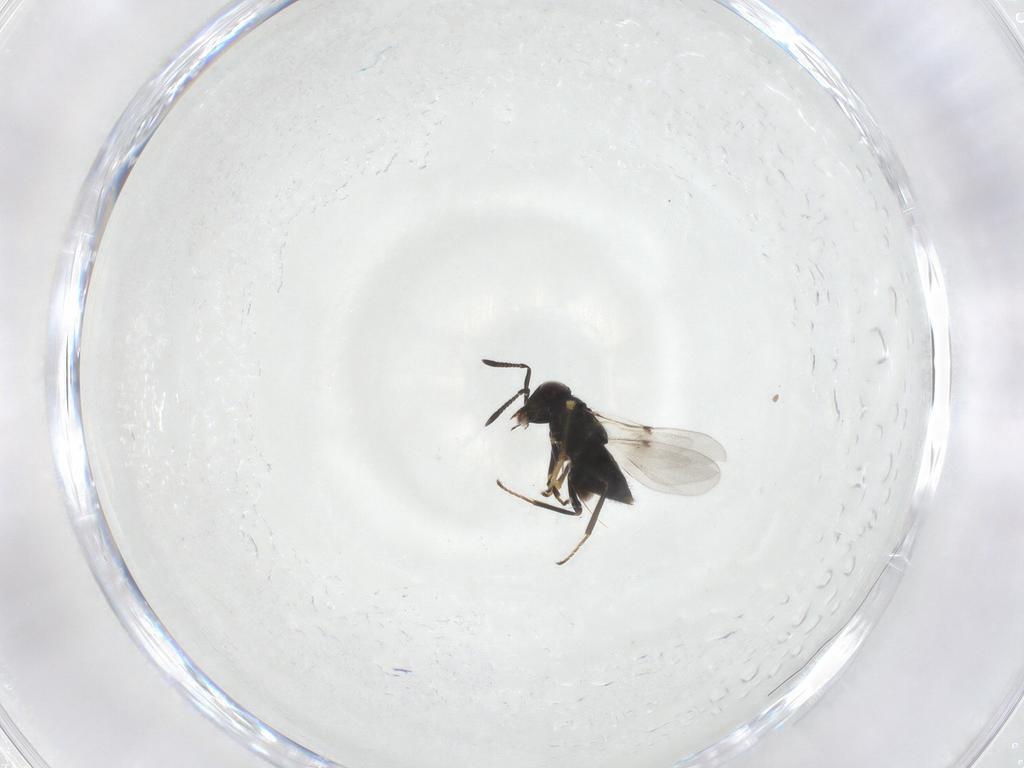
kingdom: Animalia
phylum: Arthropoda
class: Insecta
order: Hymenoptera
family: Encyrtidae
